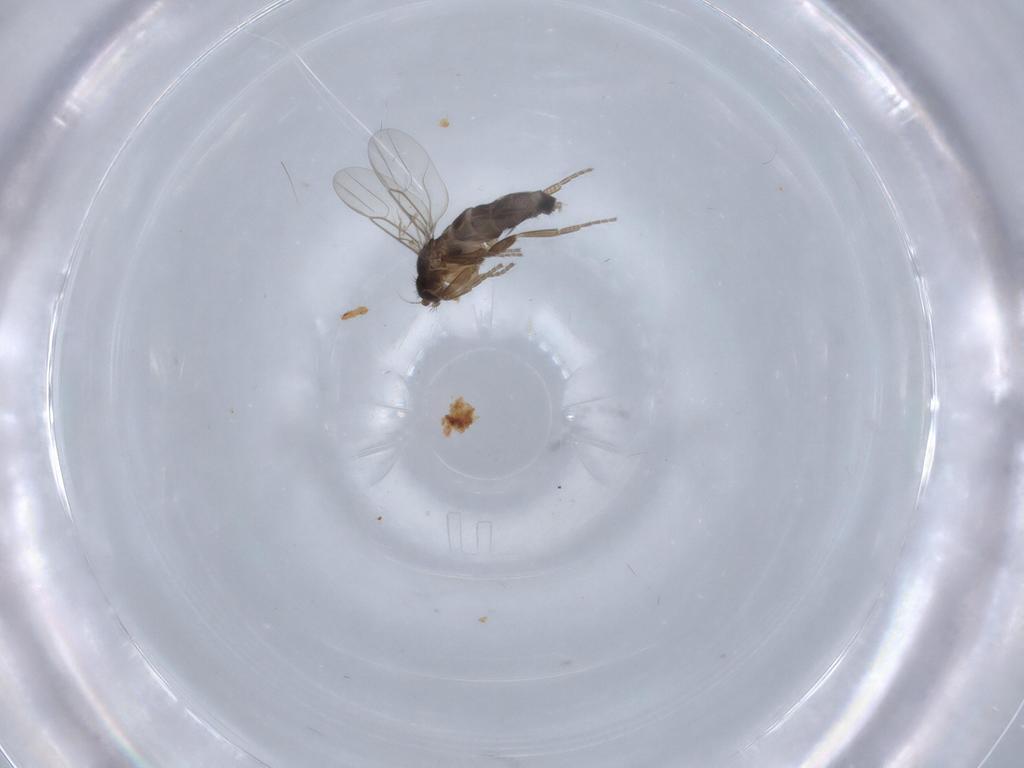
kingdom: Animalia
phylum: Arthropoda
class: Insecta
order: Diptera
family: Phoridae
